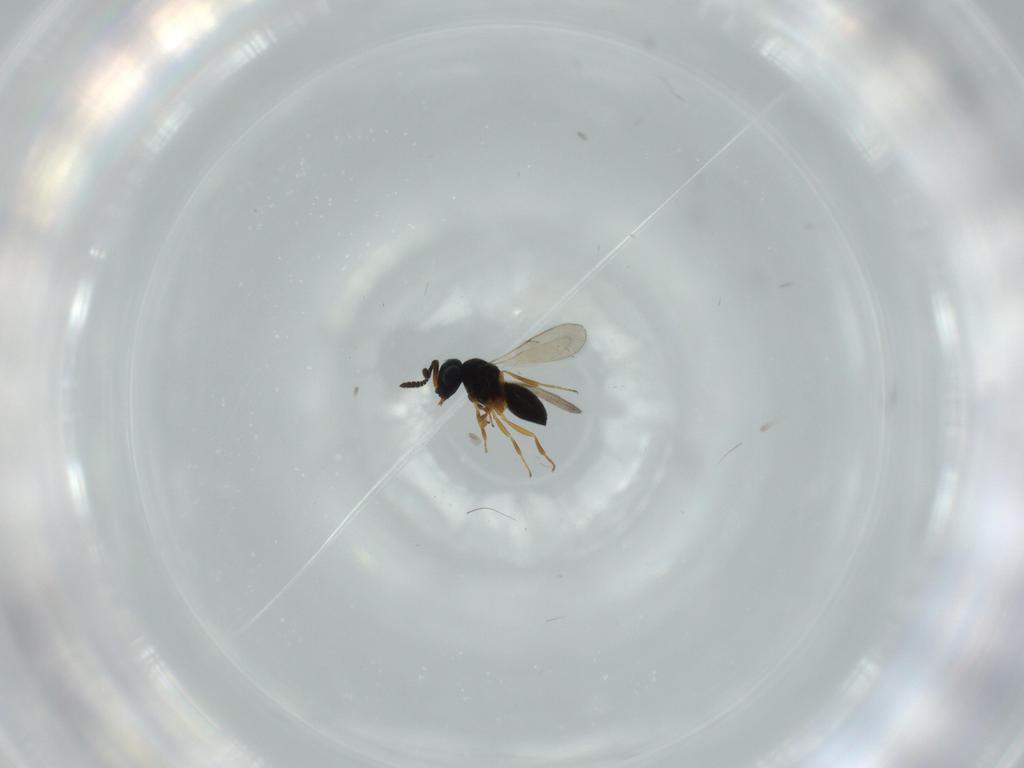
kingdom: Animalia
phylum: Arthropoda
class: Insecta
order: Hymenoptera
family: Scelionidae
